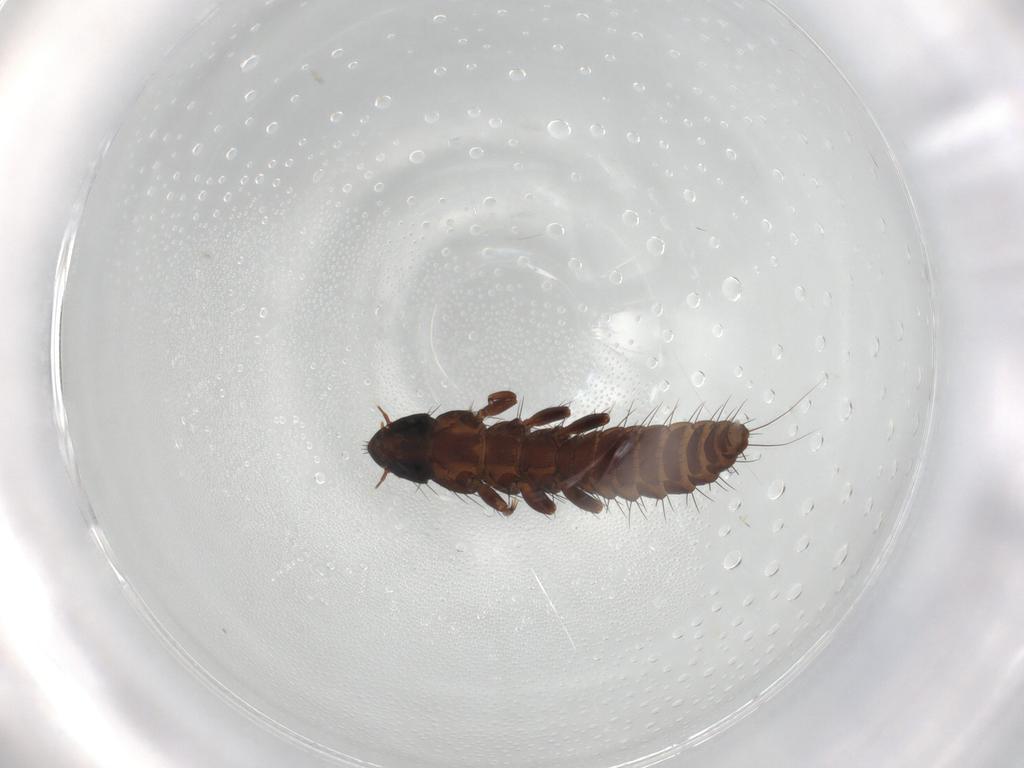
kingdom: Animalia
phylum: Arthropoda
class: Insecta
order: Coleoptera
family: Meloidae
